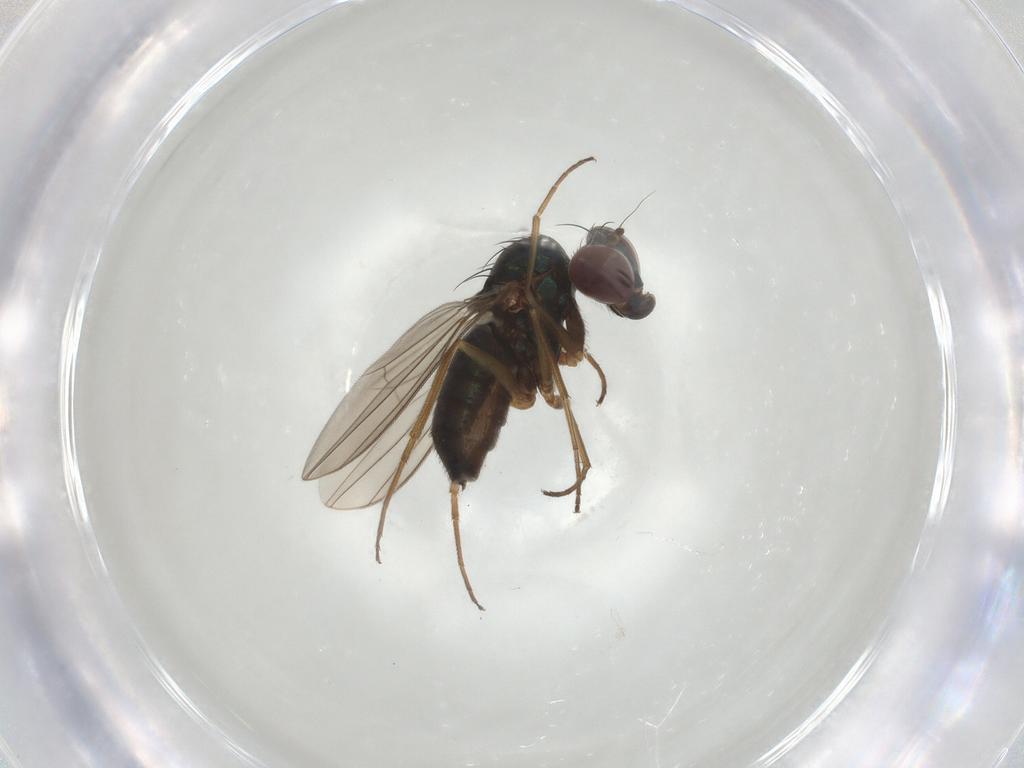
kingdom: Animalia
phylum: Arthropoda
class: Insecta
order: Diptera
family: Dolichopodidae
